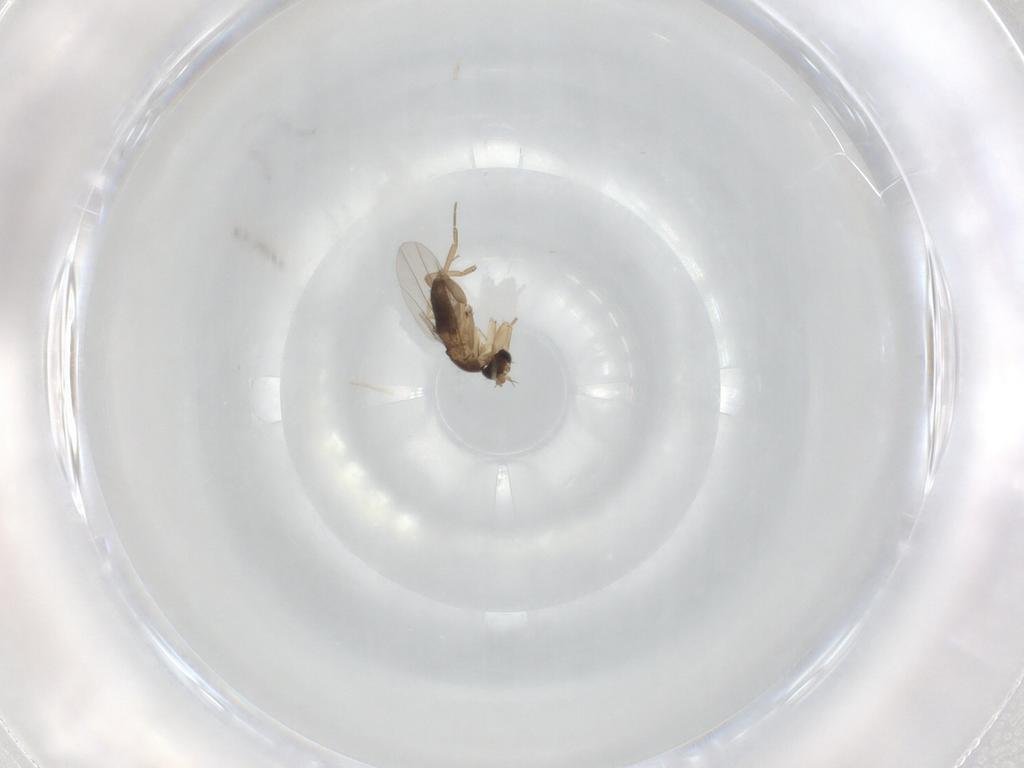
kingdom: Animalia
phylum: Arthropoda
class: Insecta
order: Diptera
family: Phoridae
